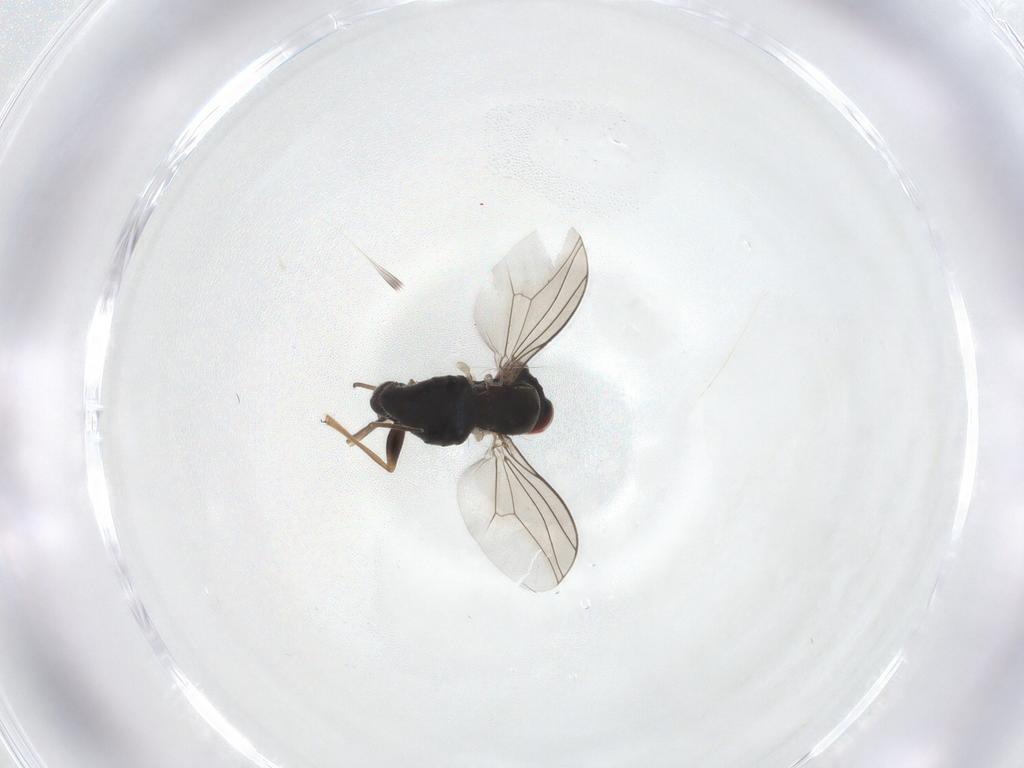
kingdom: Animalia
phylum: Arthropoda
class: Insecta
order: Diptera
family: Dolichopodidae
